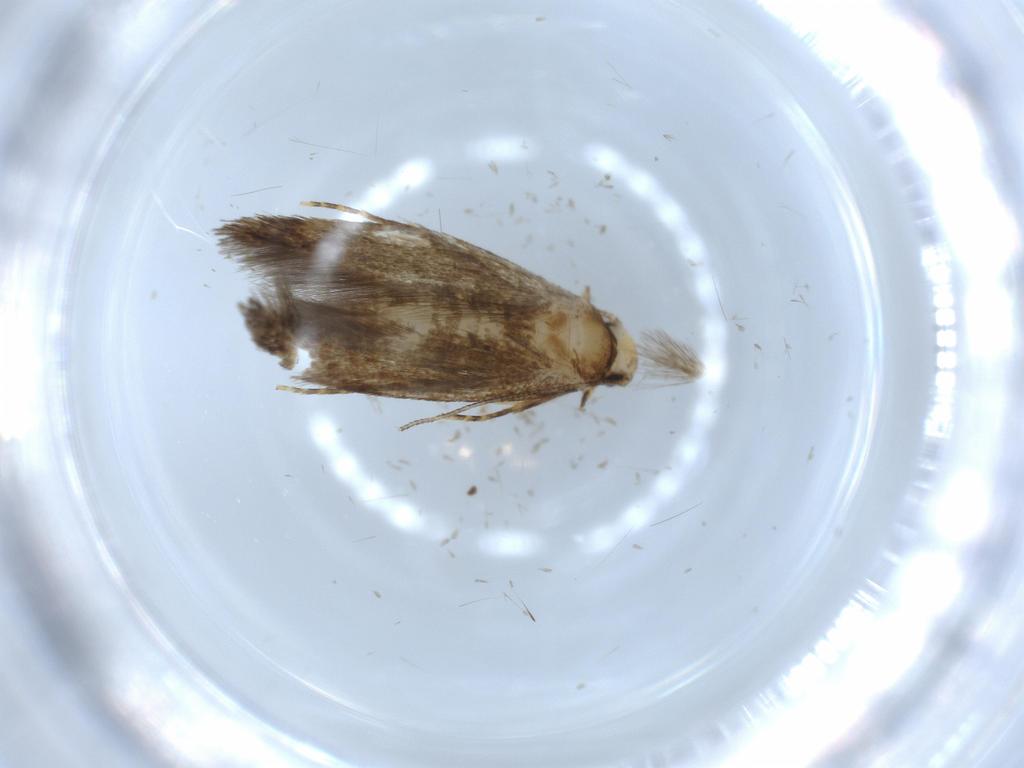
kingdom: Animalia
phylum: Arthropoda
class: Insecta
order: Lepidoptera
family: Tineidae
